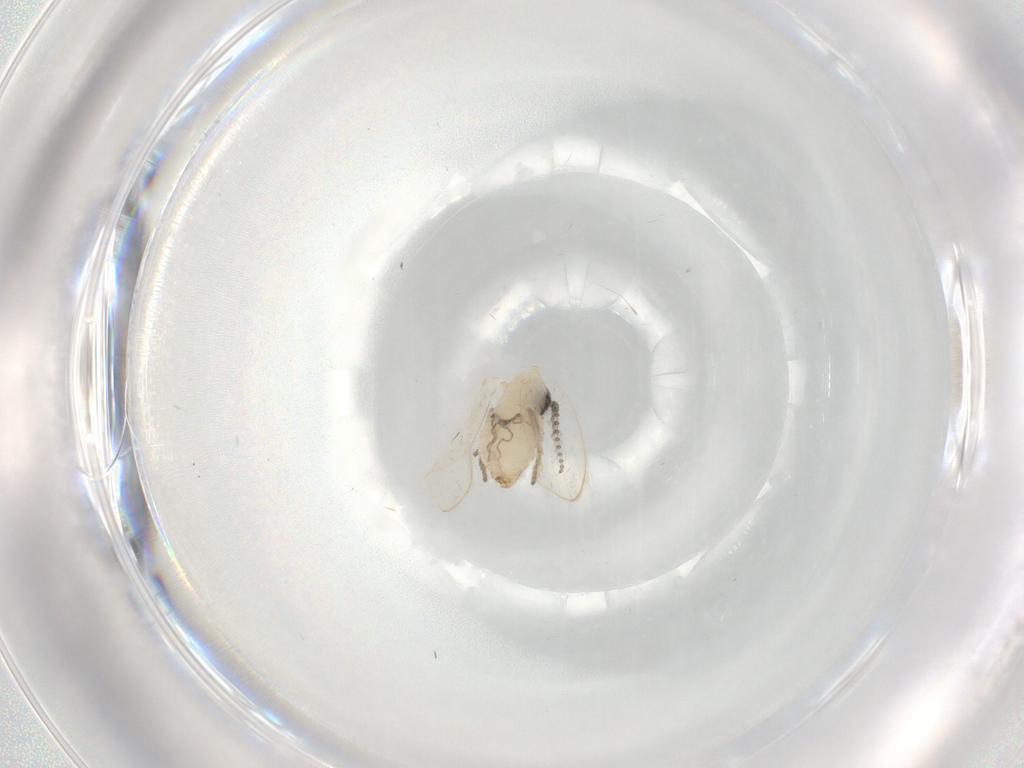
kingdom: Animalia
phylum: Arthropoda
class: Insecta
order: Diptera
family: Psychodidae
